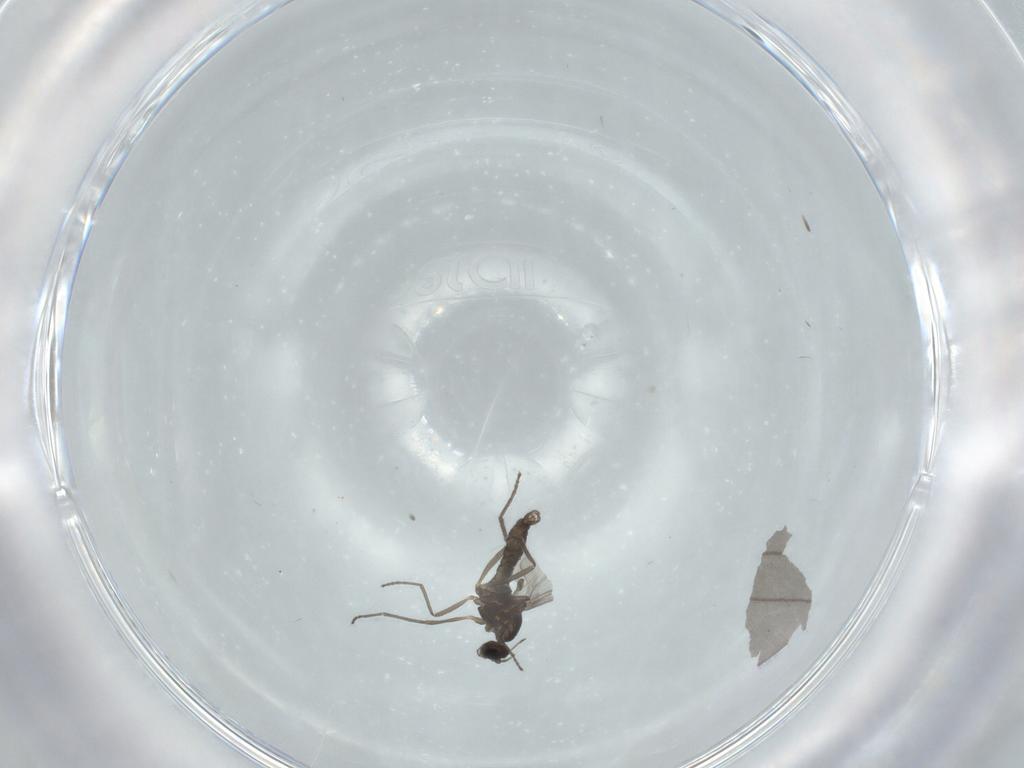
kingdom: Animalia
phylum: Arthropoda
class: Insecta
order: Diptera
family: Cecidomyiidae
